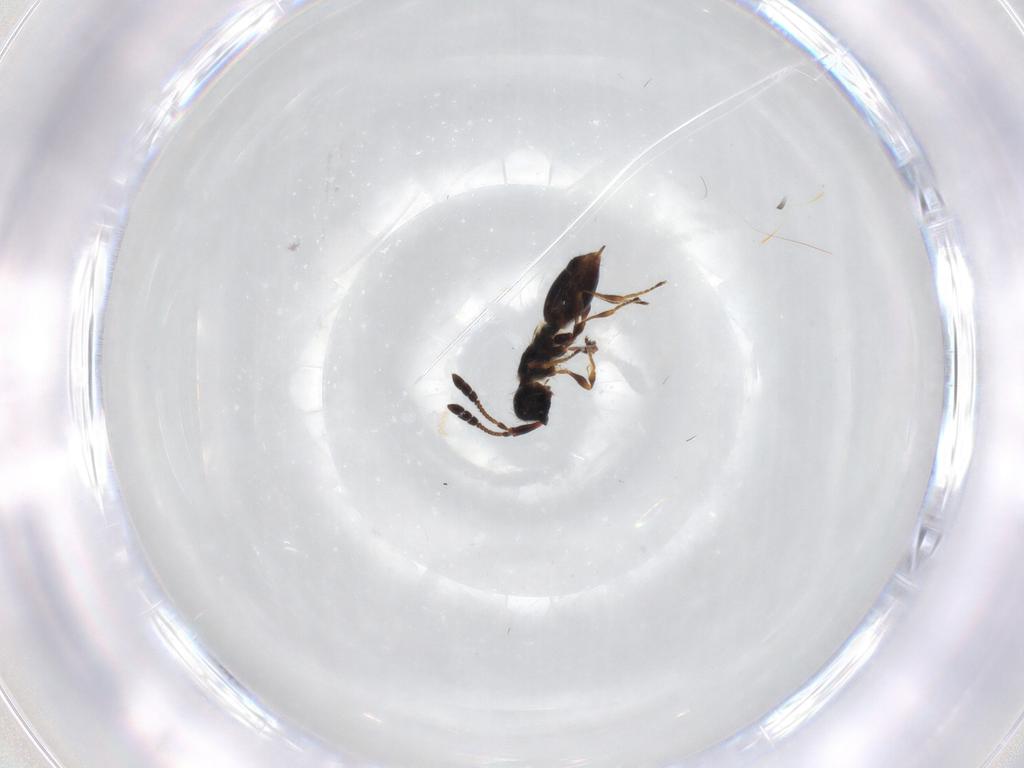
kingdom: Animalia
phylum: Arthropoda
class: Insecta
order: Hymenoptera
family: Diapriidae
